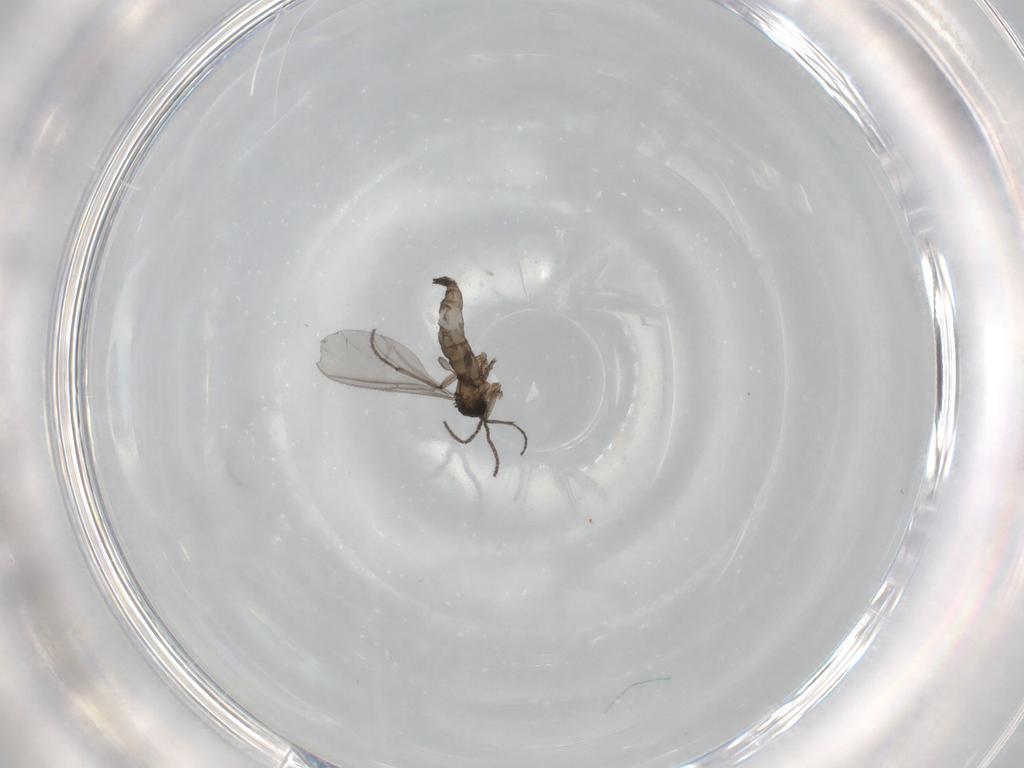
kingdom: Animalia
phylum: Arthropoda
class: Insecta
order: Diptera
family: Sciaridae
